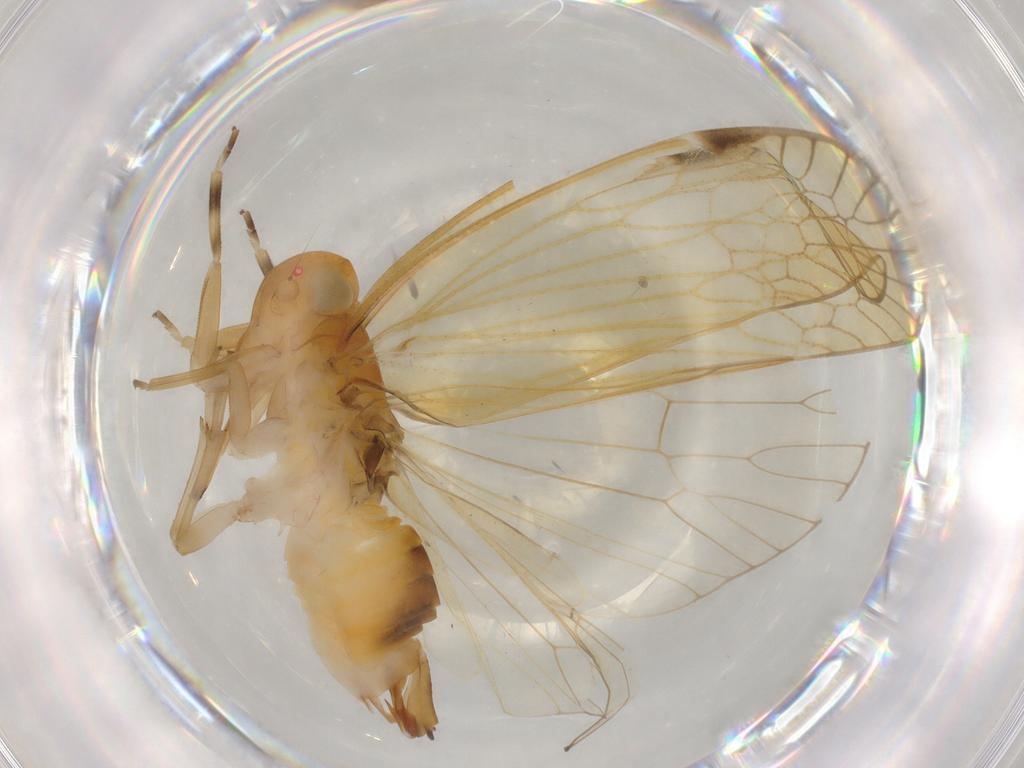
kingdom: Animalia
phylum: Arthropoda
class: Insecta
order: Hemiptera
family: Cixiidae
